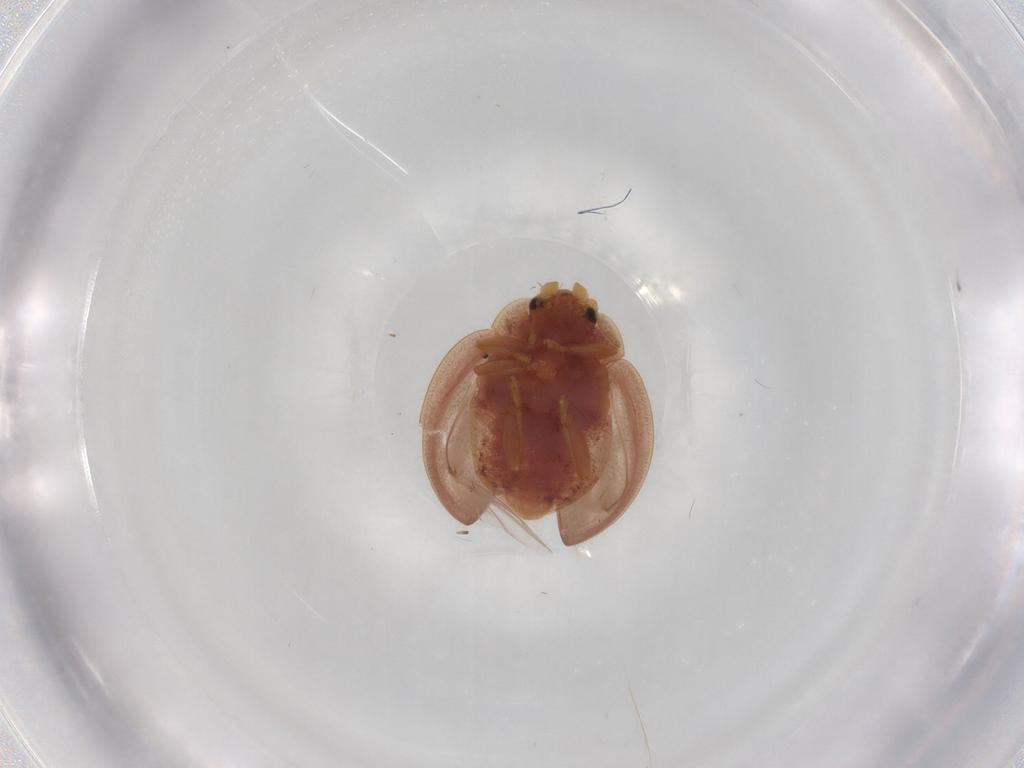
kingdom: Animalia
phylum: Arthropoda
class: Insecta
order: Coleoptera
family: Coccinellidae
